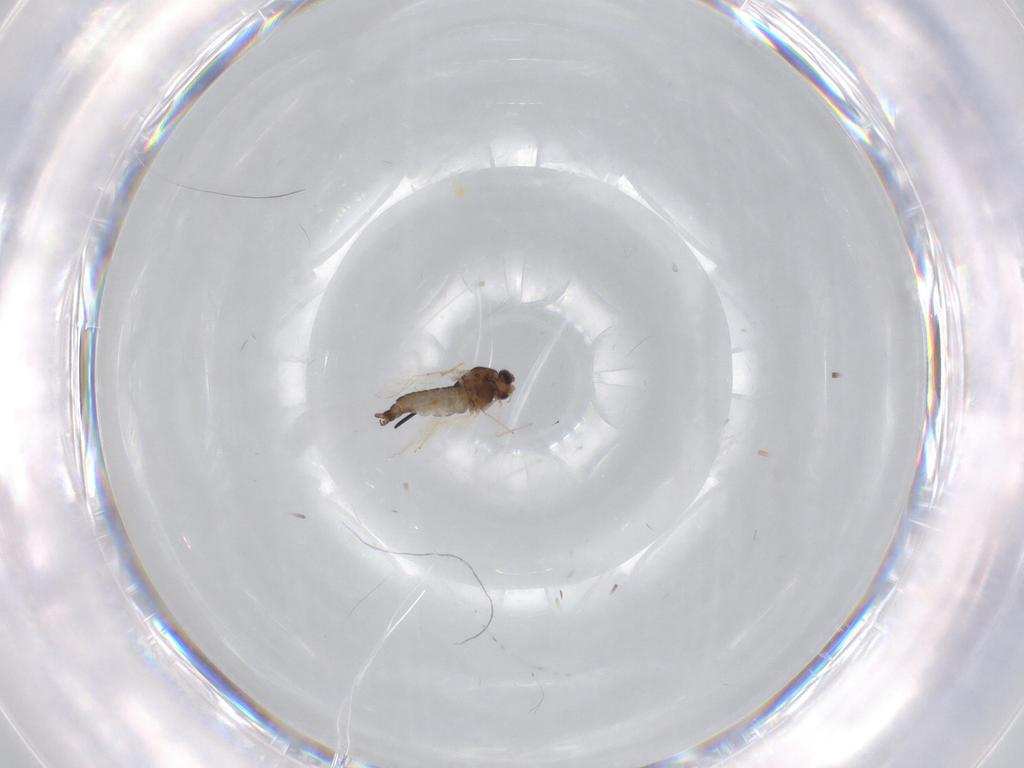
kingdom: Animalia
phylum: Arthropoda
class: Insecta
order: Diptera
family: Chironomidae
